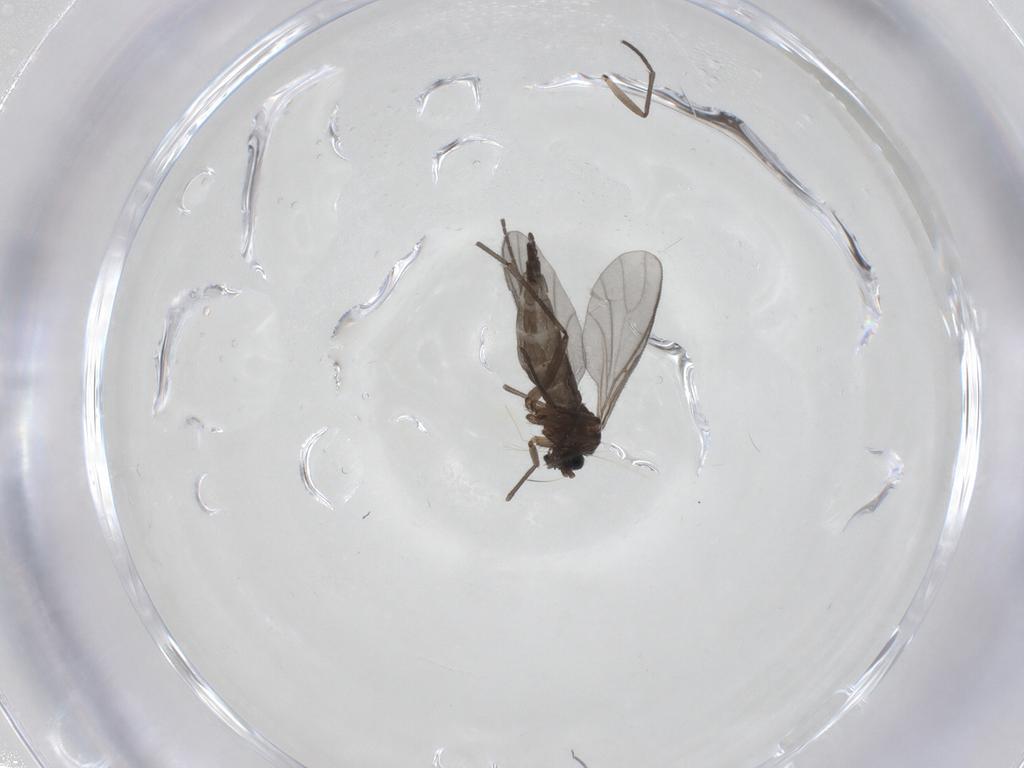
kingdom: Animalia
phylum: Arthropoda
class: Insecta
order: Diptera
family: Sciaridae
